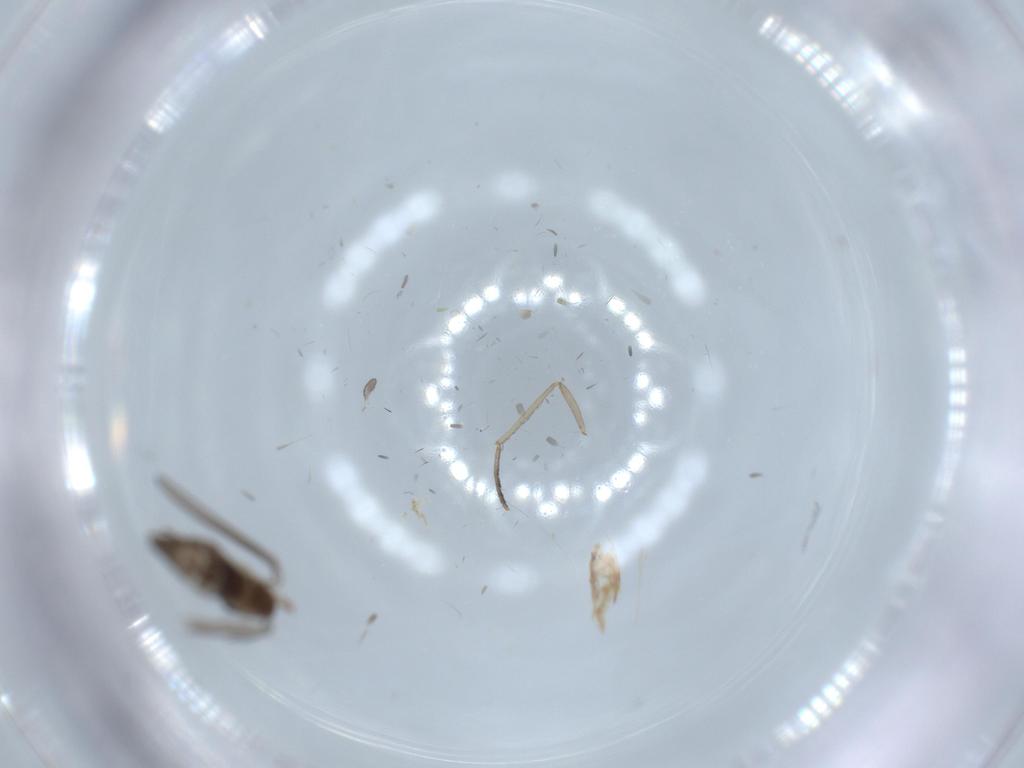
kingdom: Animalia
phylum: Arthropoda
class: Insecta
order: Diptera
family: Psychodidae
